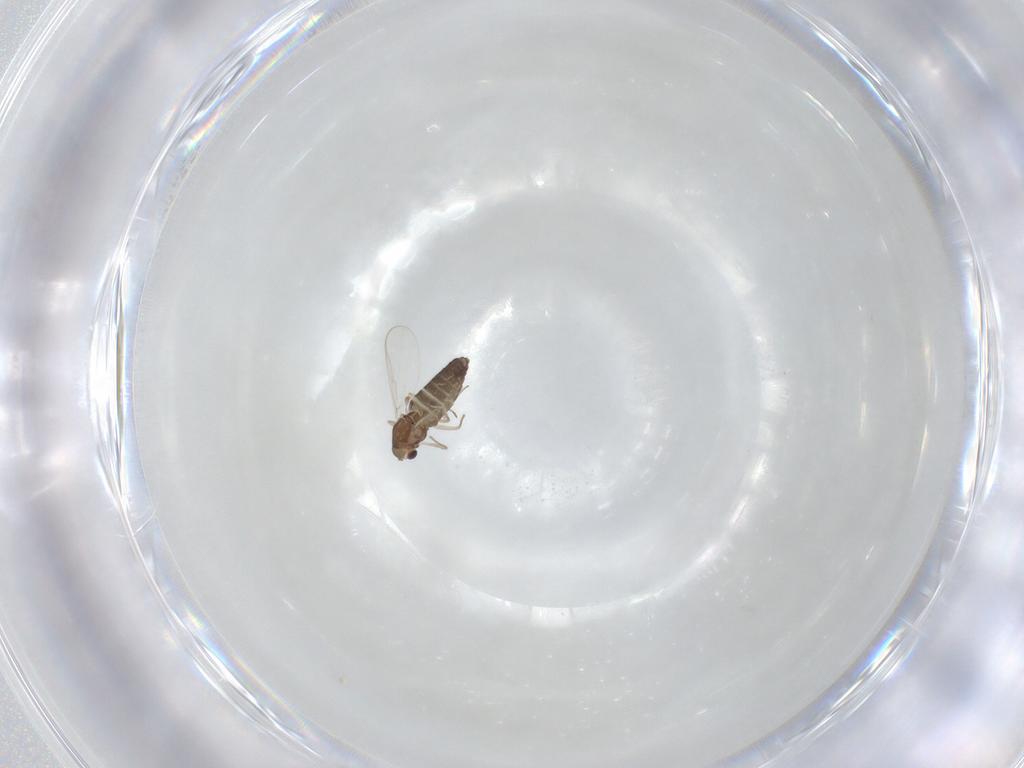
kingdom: Animalia
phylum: Arthropoda
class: Insecta
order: Diptera
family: Chironomidae
